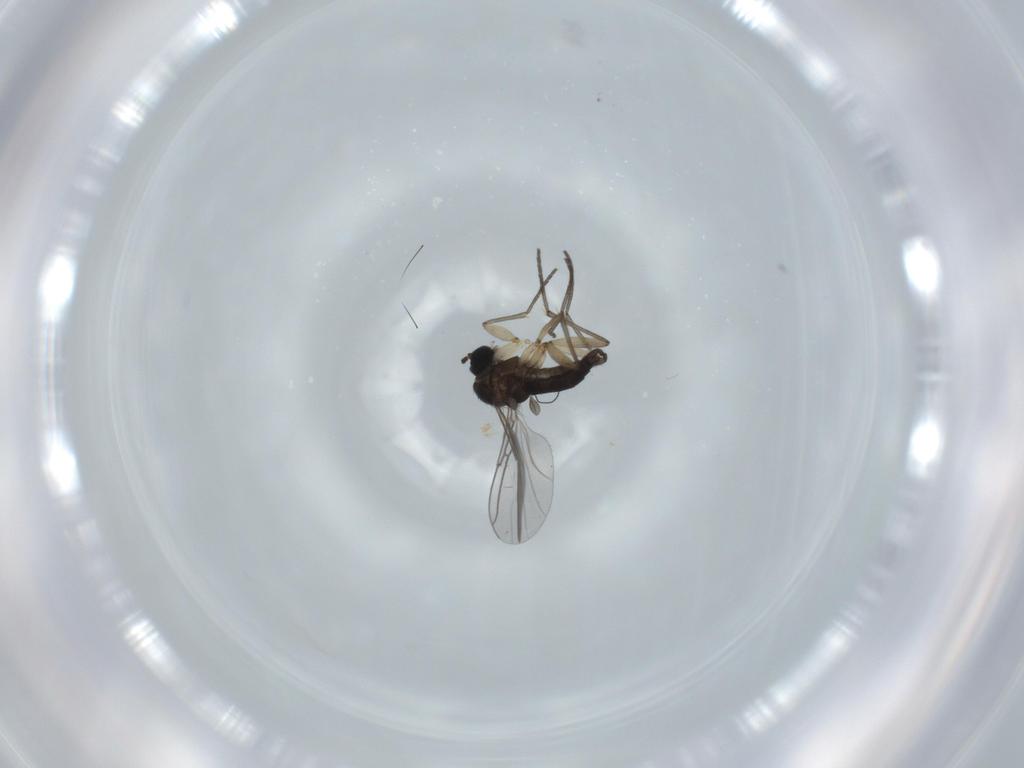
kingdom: Animalia
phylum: Arthropoda
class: Insecta
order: Diptera
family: Sciaridae
